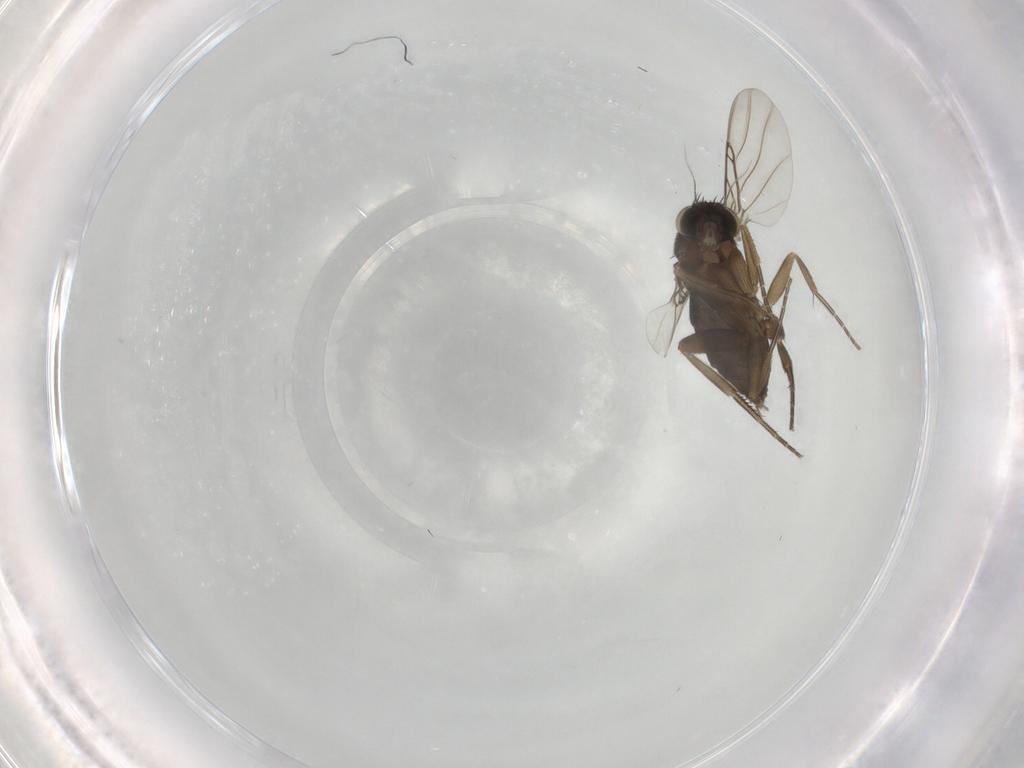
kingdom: Animalia
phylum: Arthropoda
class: Insecta
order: Diptera
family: Phoridae
